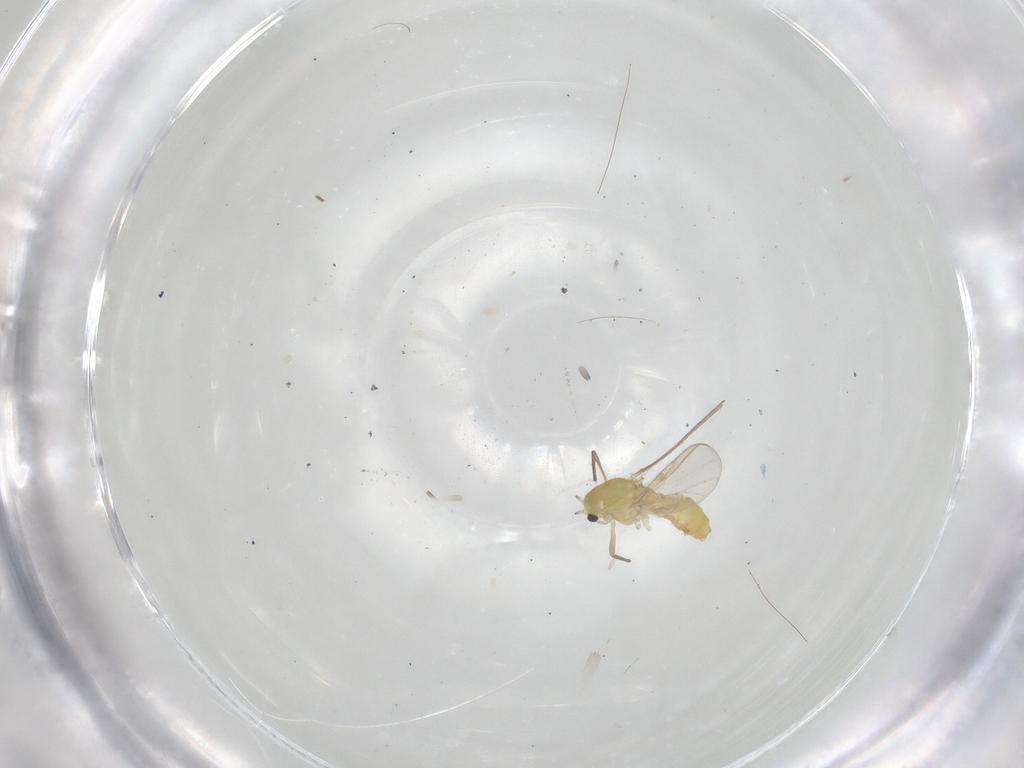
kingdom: Animalia
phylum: Arthropoda
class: Insecta
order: Diptera
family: Chironomidae
